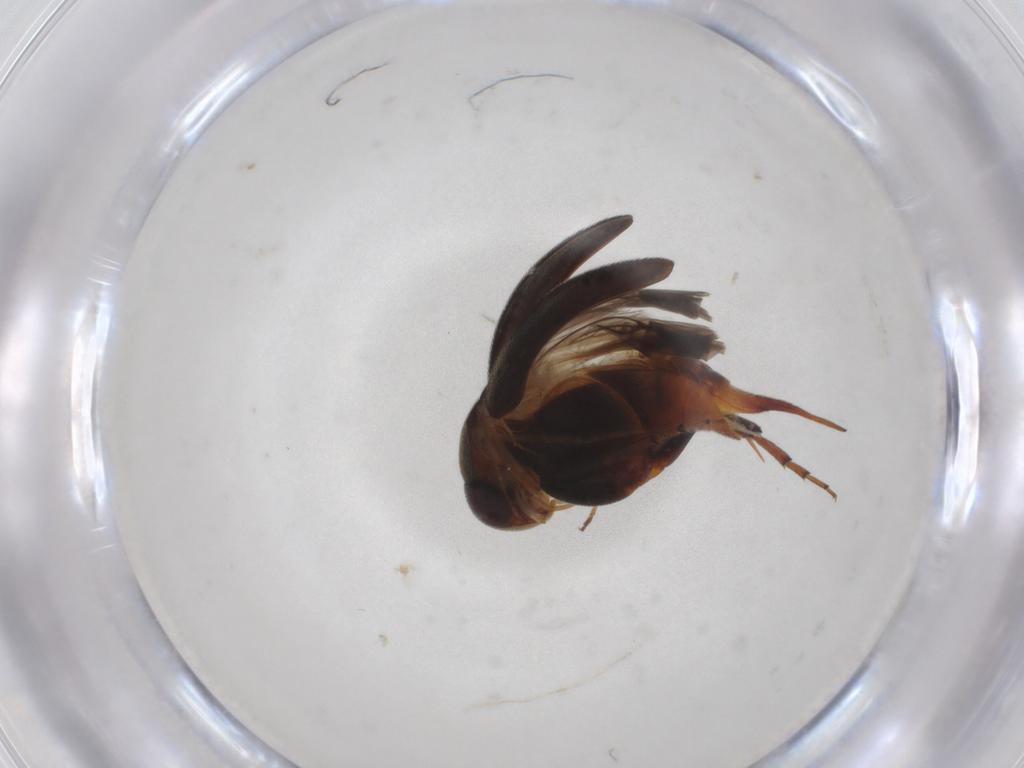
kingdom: Animalia
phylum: Arthropoda
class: Insecta
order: Coleoptera
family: Mordellidae
